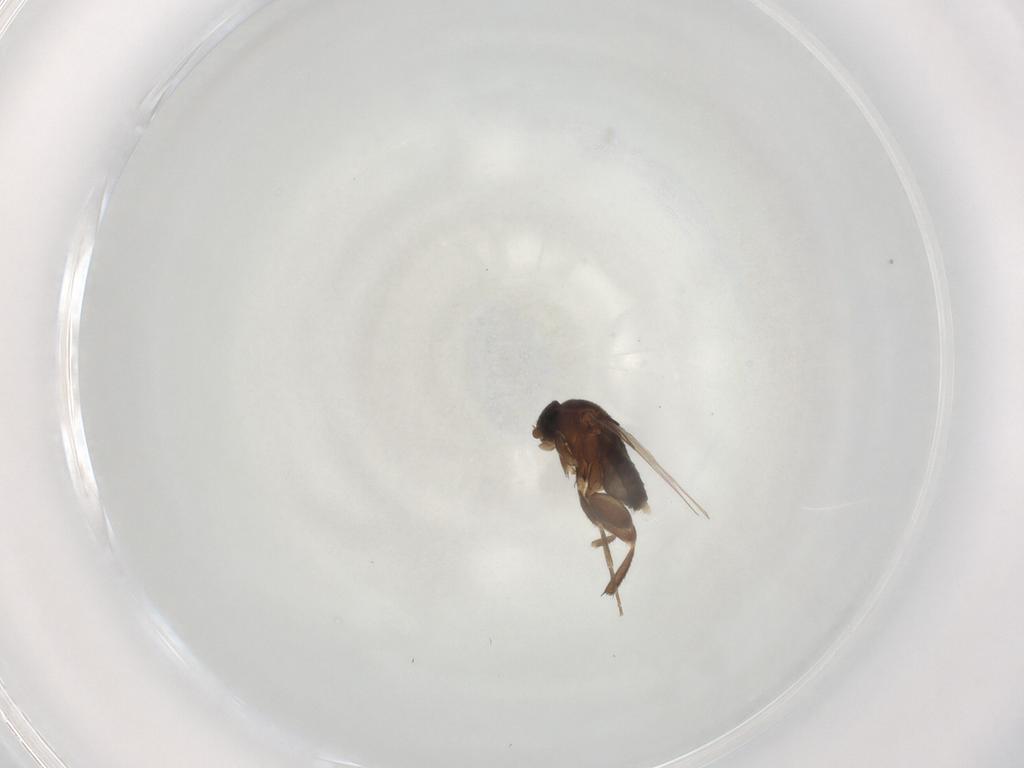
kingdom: Animalia
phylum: Arthropoda
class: Insecta
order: Diptera
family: Phoridae
